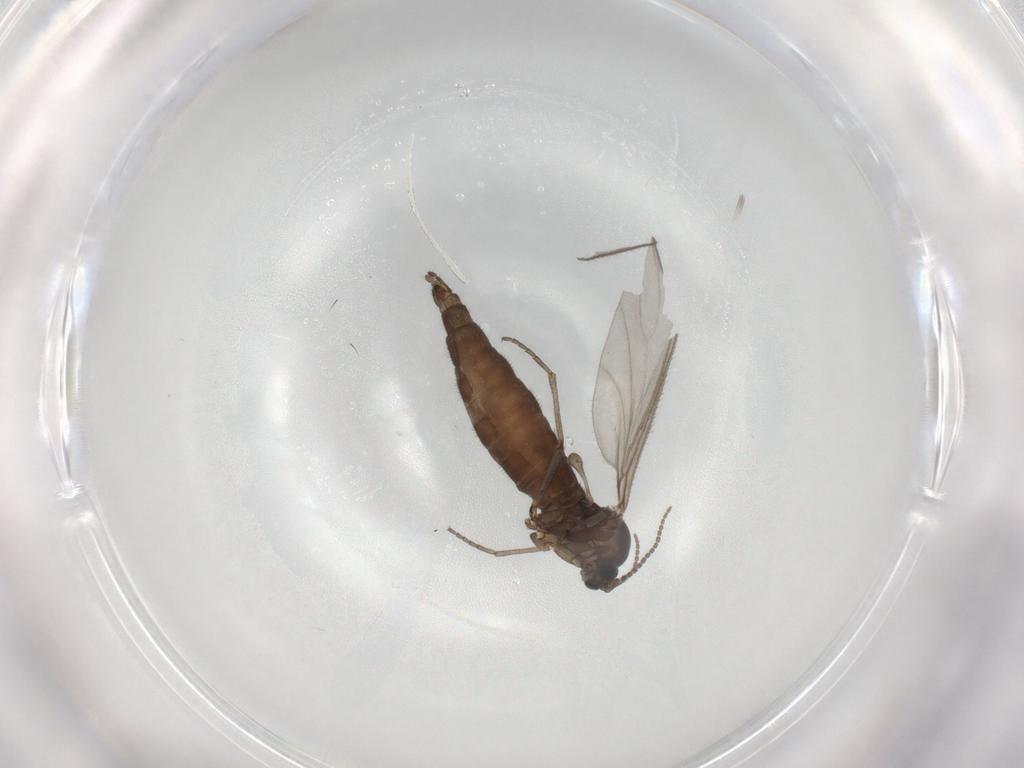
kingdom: Animalia
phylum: Arthropoda
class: Insecta
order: Diptera
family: Sciaridae
